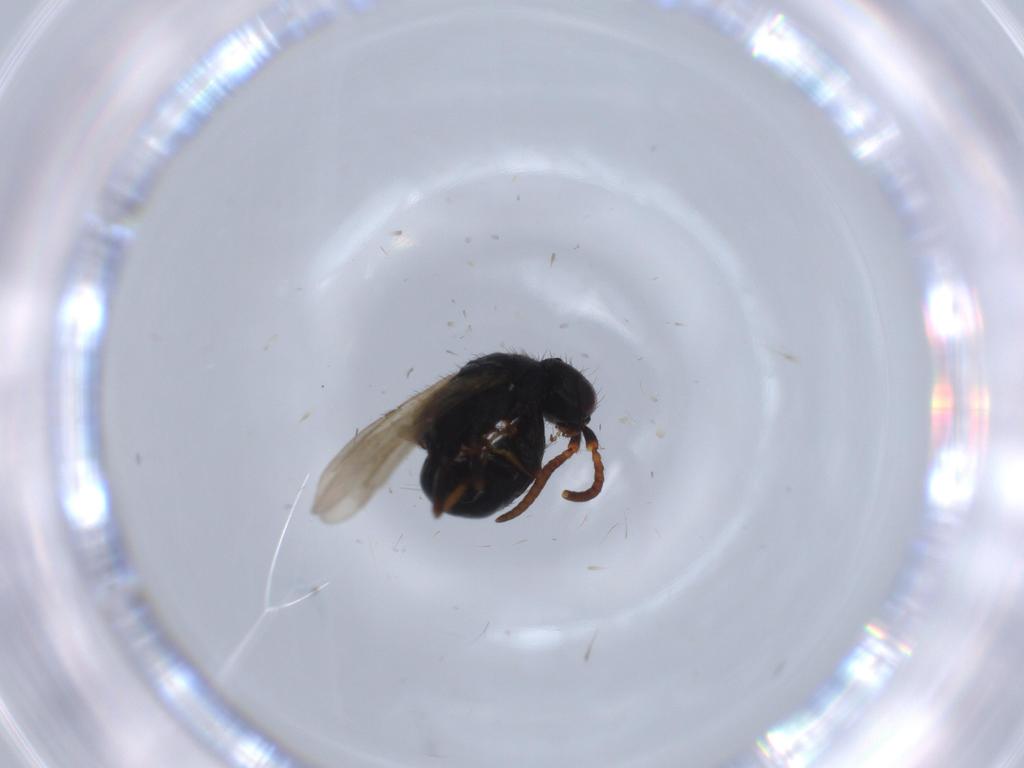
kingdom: Animalia
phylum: Arthropoda
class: Insecta
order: Hymenoptera
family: Bethylidae
